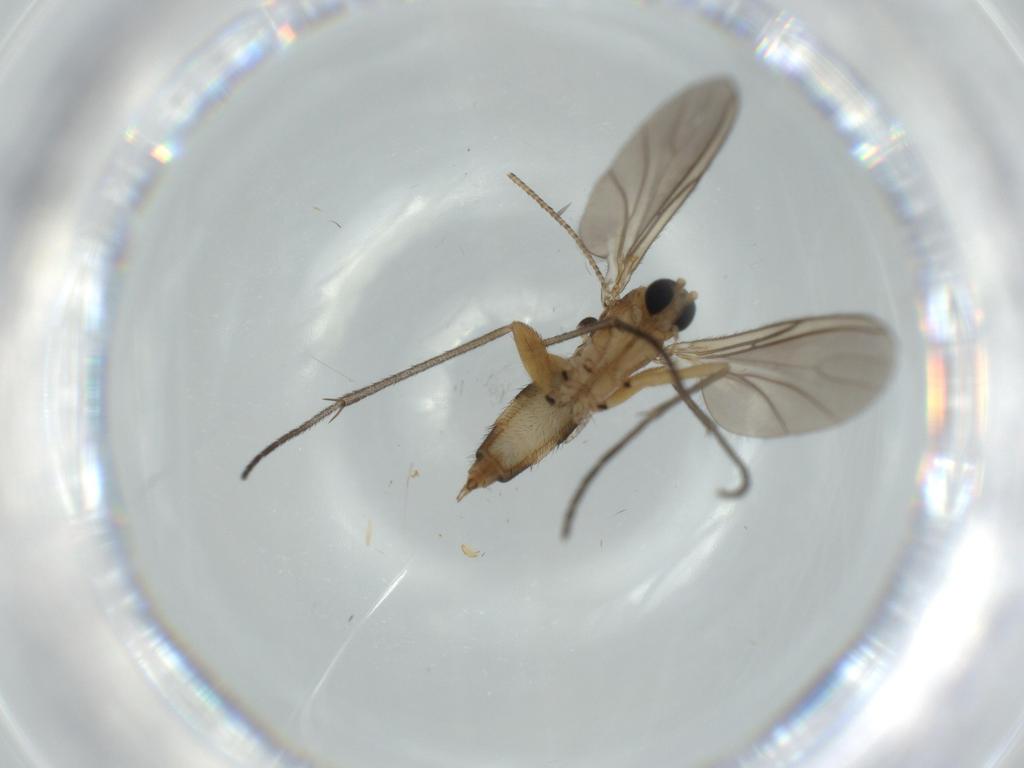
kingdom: Animalia
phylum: Arthropoda
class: Insecta
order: Diptera
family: Sciaridae
